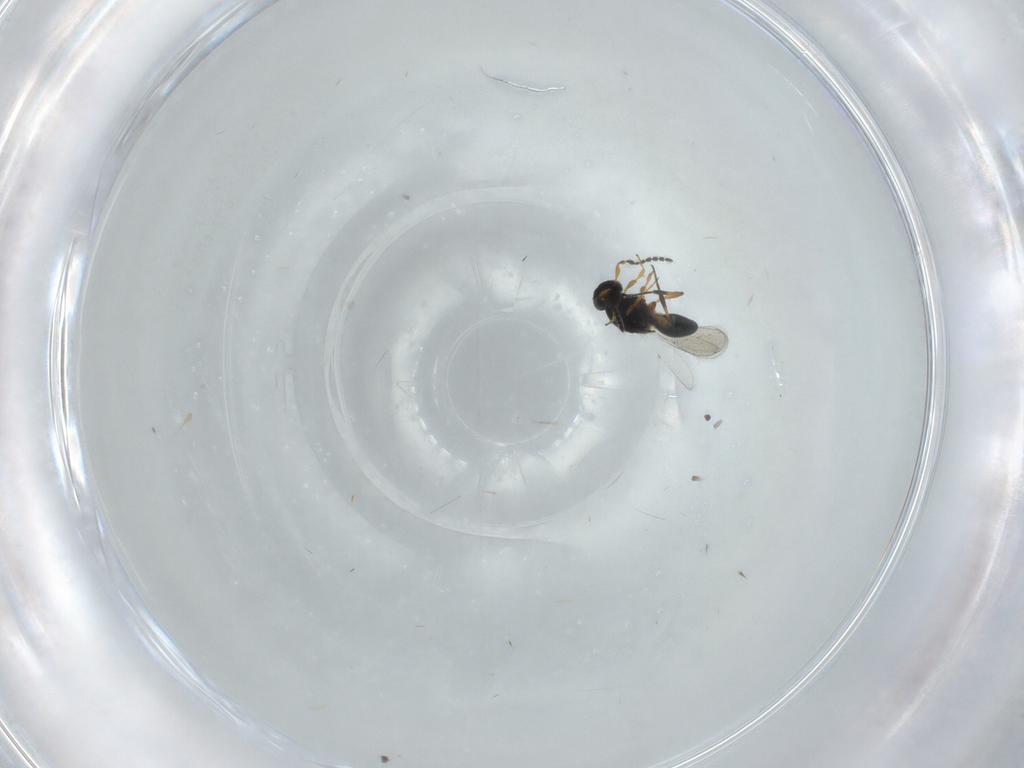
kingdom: Animalia
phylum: Arthropoda
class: Insecta
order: Hymenoptera
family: Platygastridae
